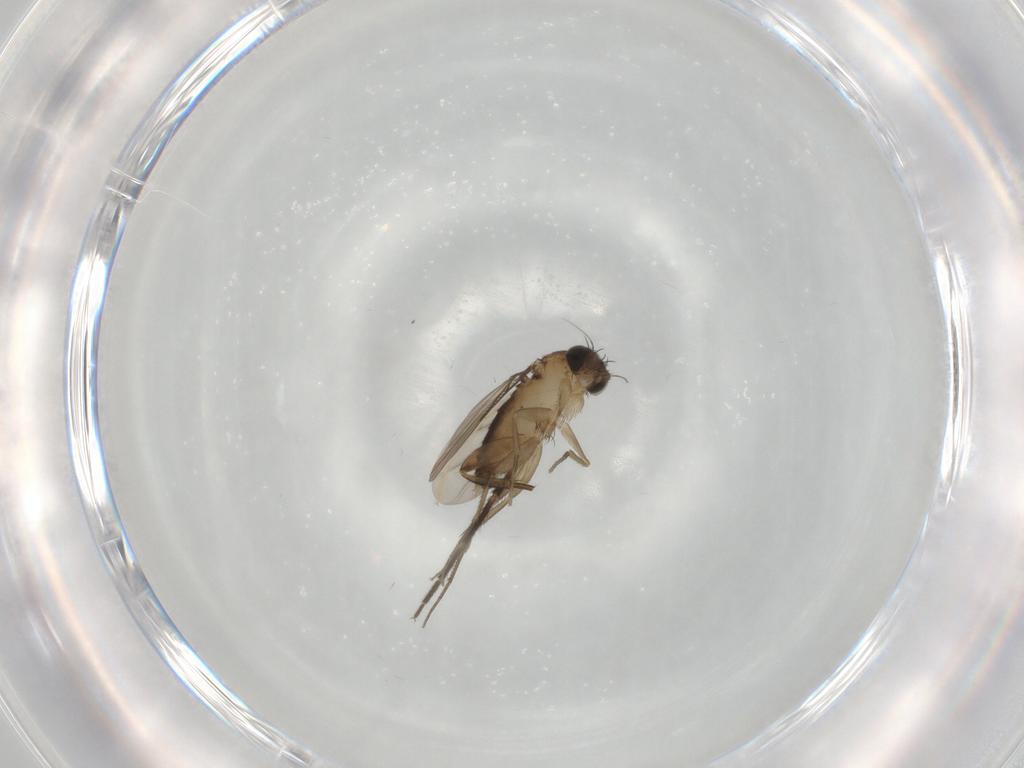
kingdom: Animalia
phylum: Arthropoda
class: Insecta
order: Diptera
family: Phoridae
